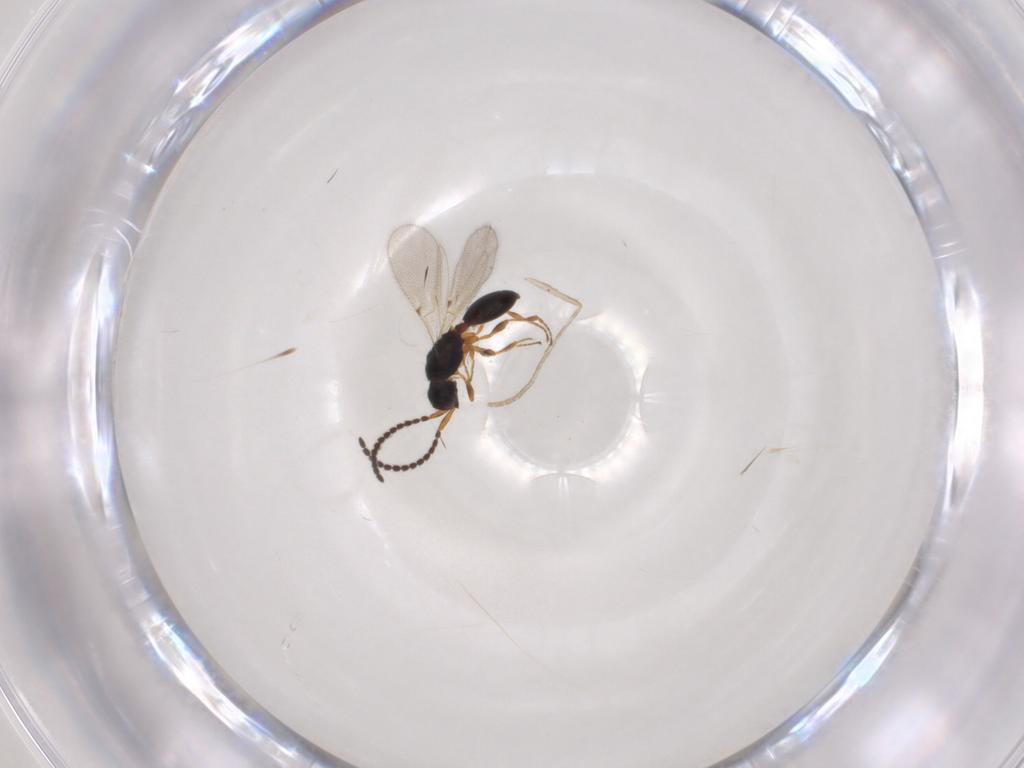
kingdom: Animalia
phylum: Arthropoda
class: Insecta
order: Hymenoptera
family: Diapriidae
